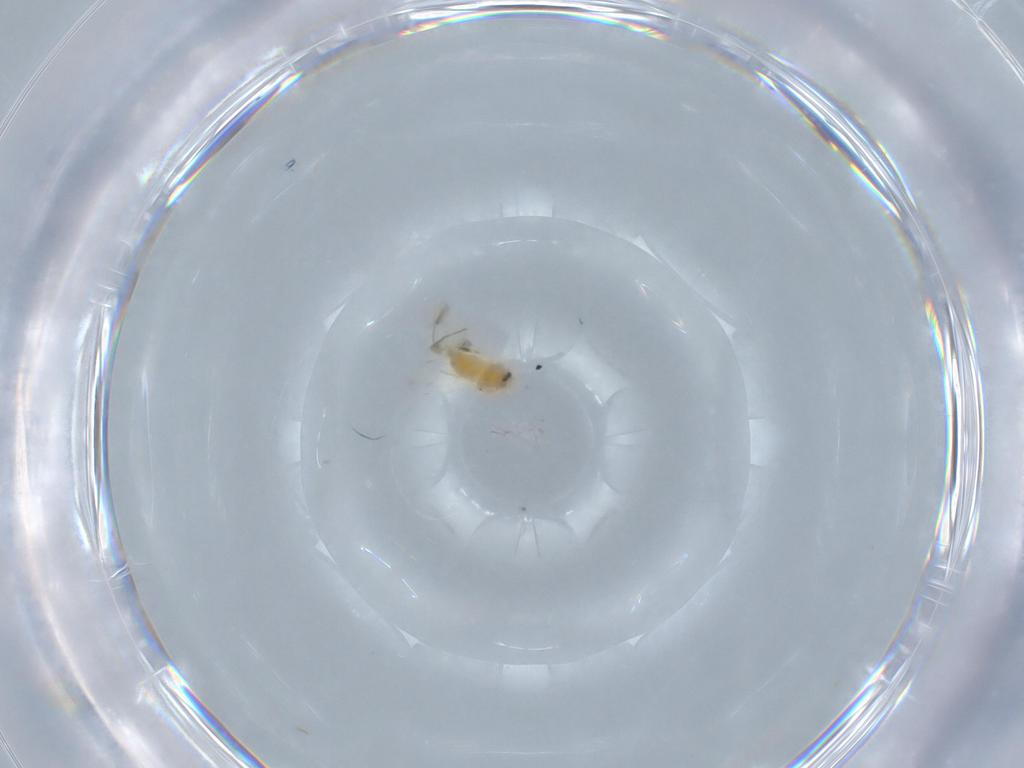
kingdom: Animalia
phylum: Arthropoda
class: Insecta
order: Hemiptera
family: Aleyrodidae
